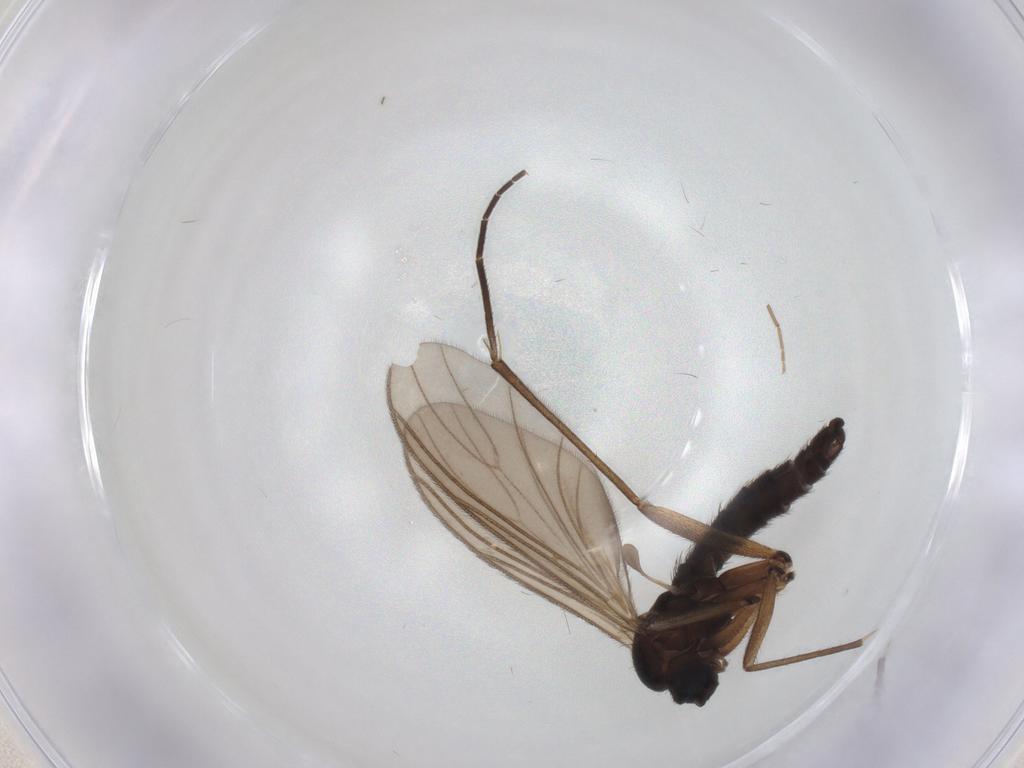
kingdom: Animalia
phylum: Arthropoda
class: Insecta
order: Diptera
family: Sciaridae
